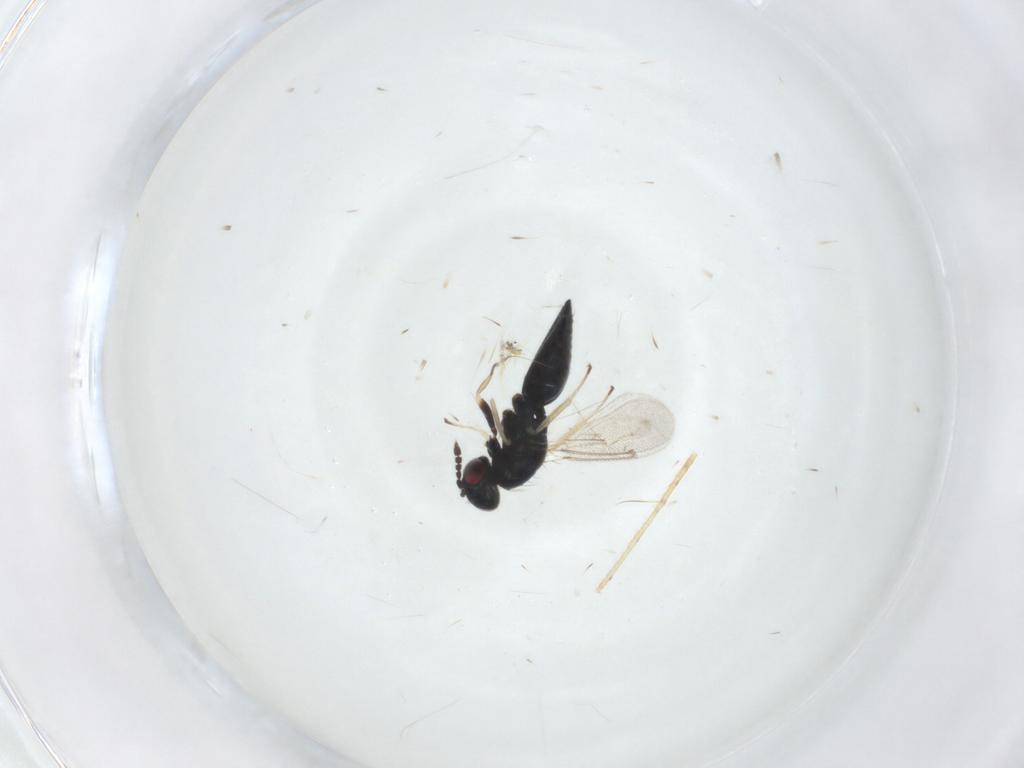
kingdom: Animalia
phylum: Arthropoda
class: Insecta
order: Hymenoptera
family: Eulophidae
